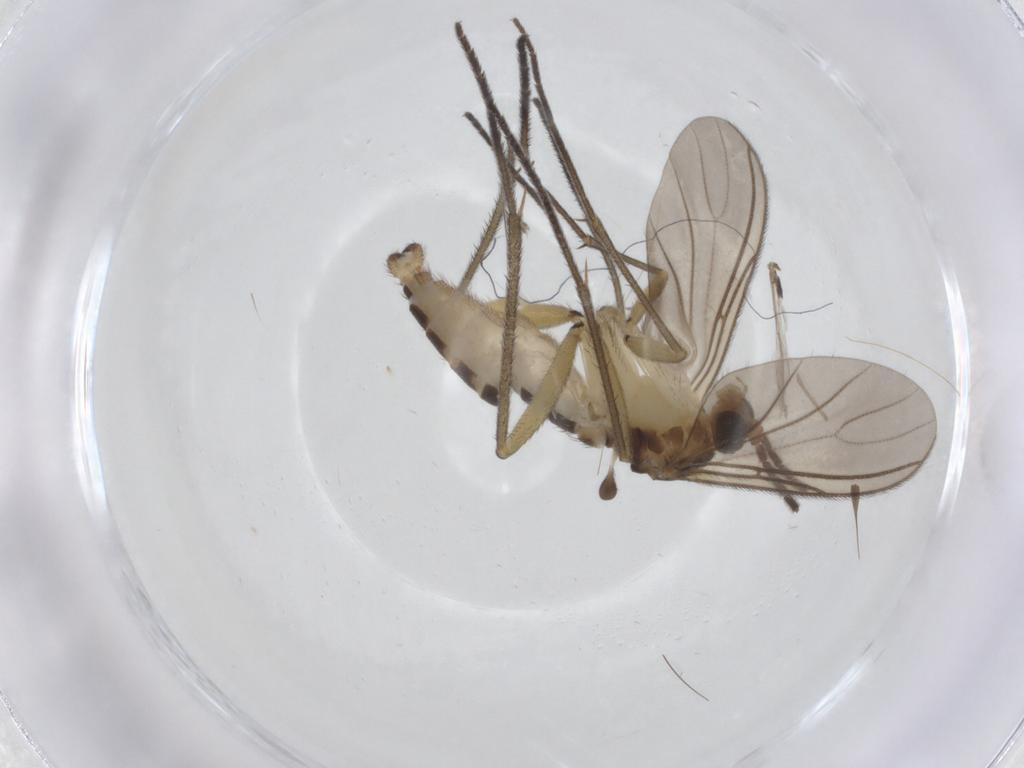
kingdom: Animalia
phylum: Arthropoda
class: Insecta
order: Diptera
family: Sciaridae
